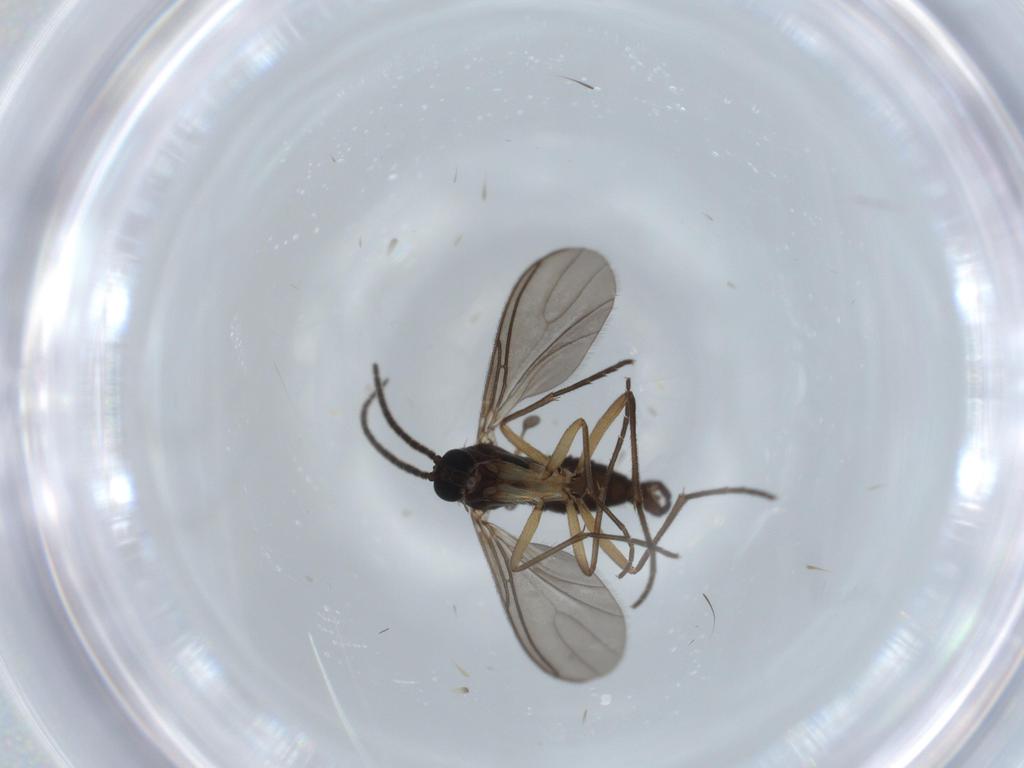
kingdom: Animalia
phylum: Arthropoda
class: Insecta
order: Diptera
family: Sciaridae
